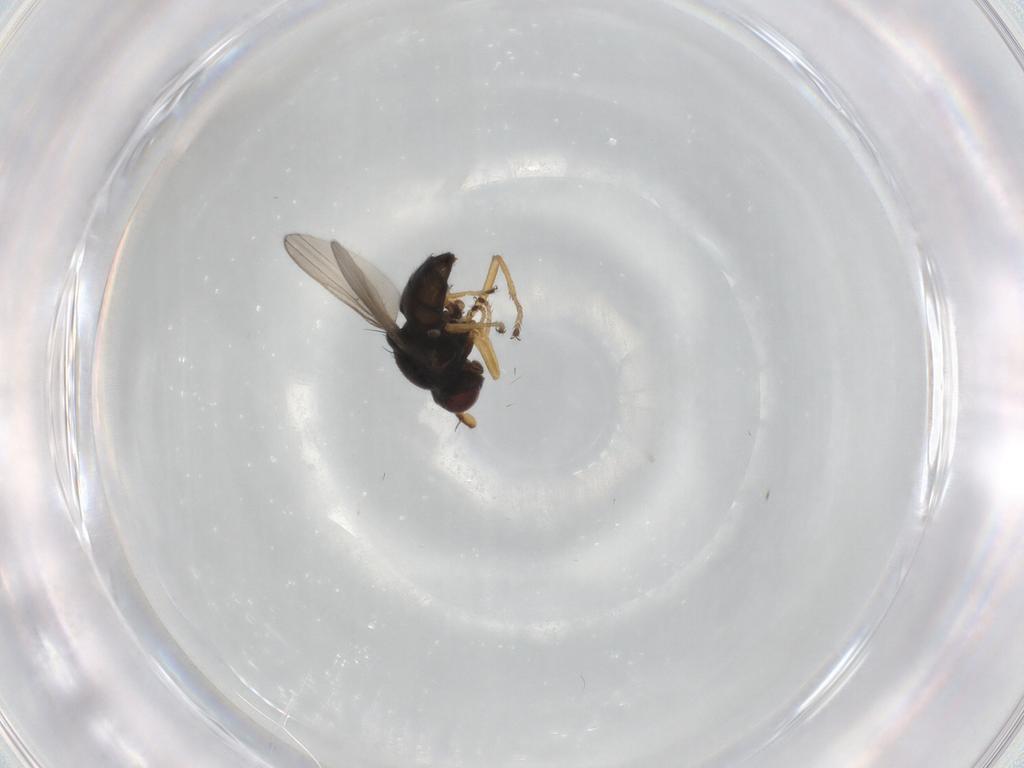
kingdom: Animalia
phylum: Arthropoda
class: Insecta
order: Diptera
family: Ephydridae
